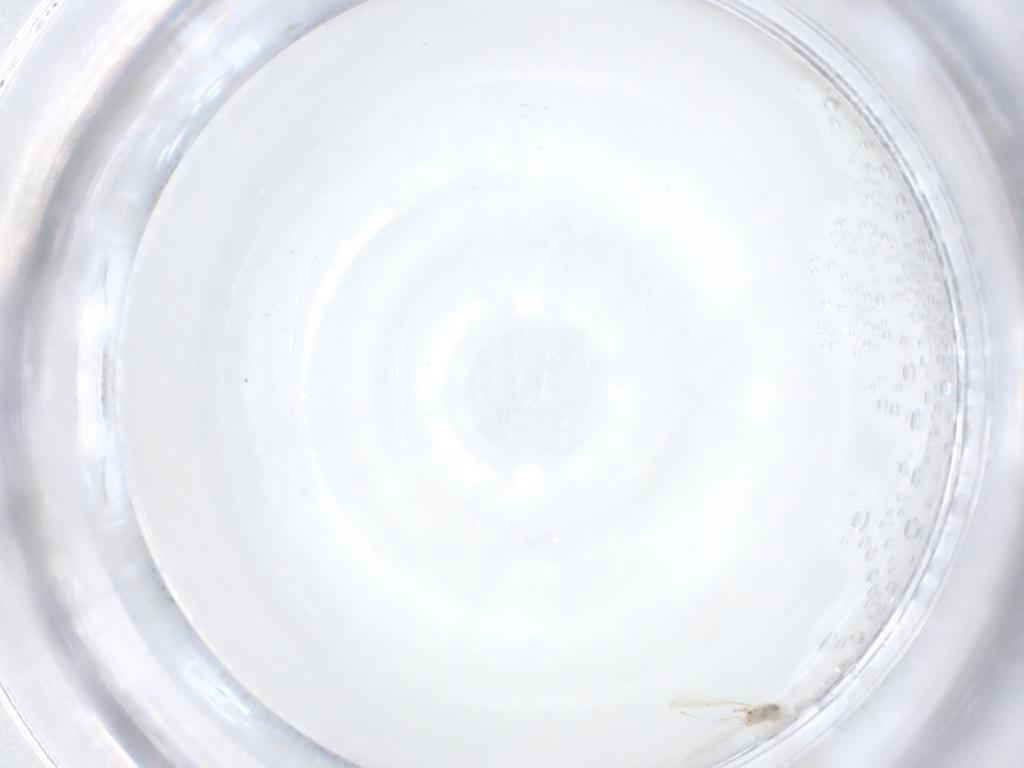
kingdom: Animalia
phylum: Arthropoda
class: Insecta
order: Diptera
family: Cecidomyiidae
